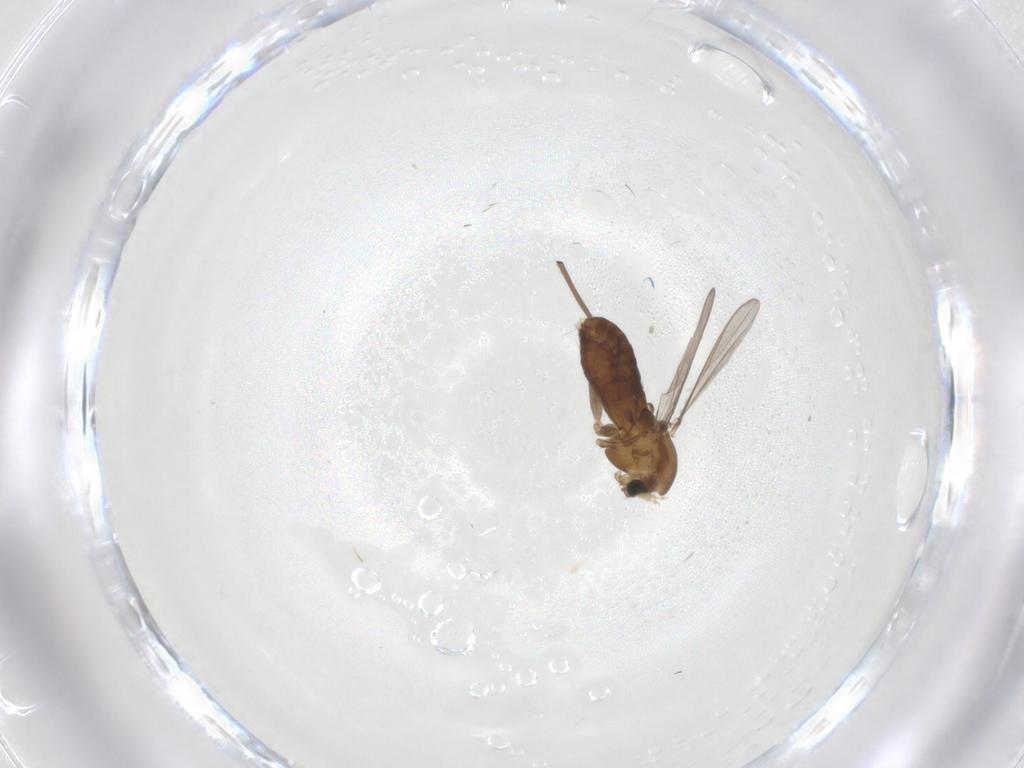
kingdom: Animalia
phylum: Arthropoda
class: Insecta
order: Diptera
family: Chironomidae
